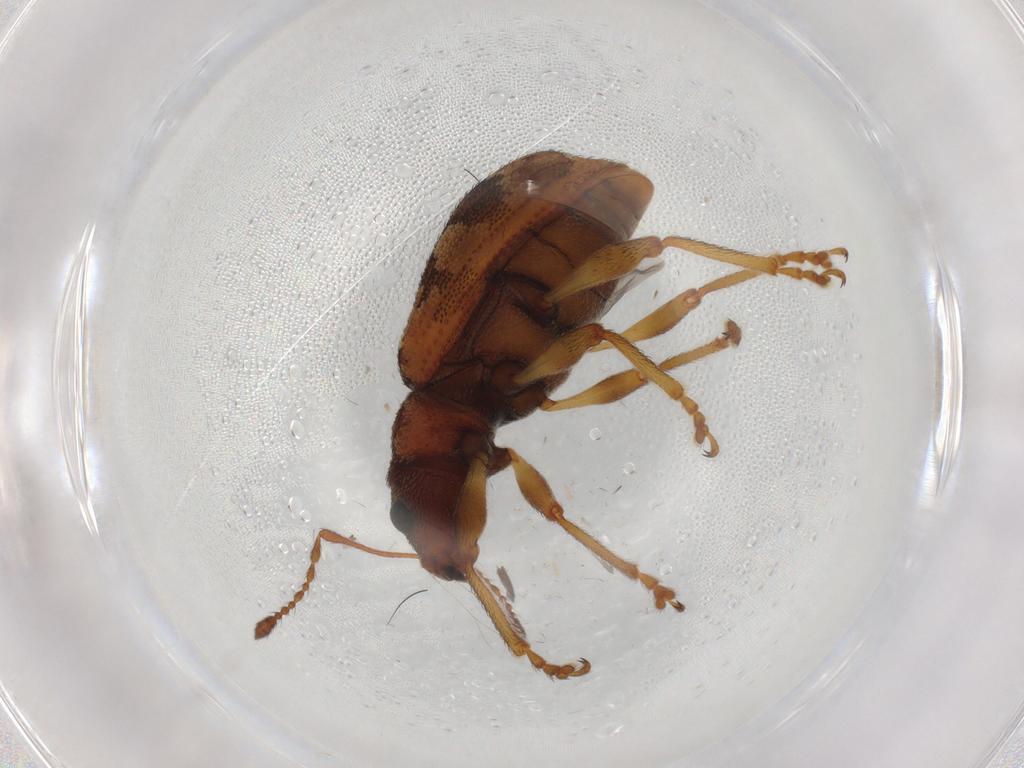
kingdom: Animalia
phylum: Arthropoda
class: Insecta
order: Coleoptera
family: Curculionidae
